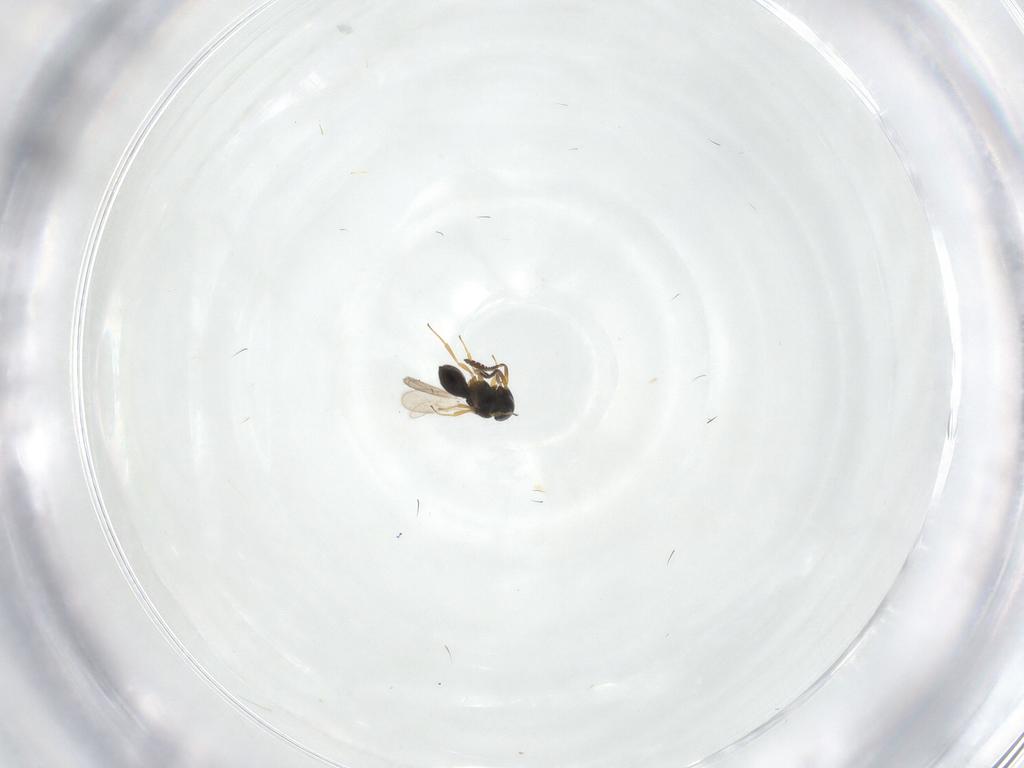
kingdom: Animalia
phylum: Arthropoda
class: Insecta
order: Hymenoptera
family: Scelionidae
